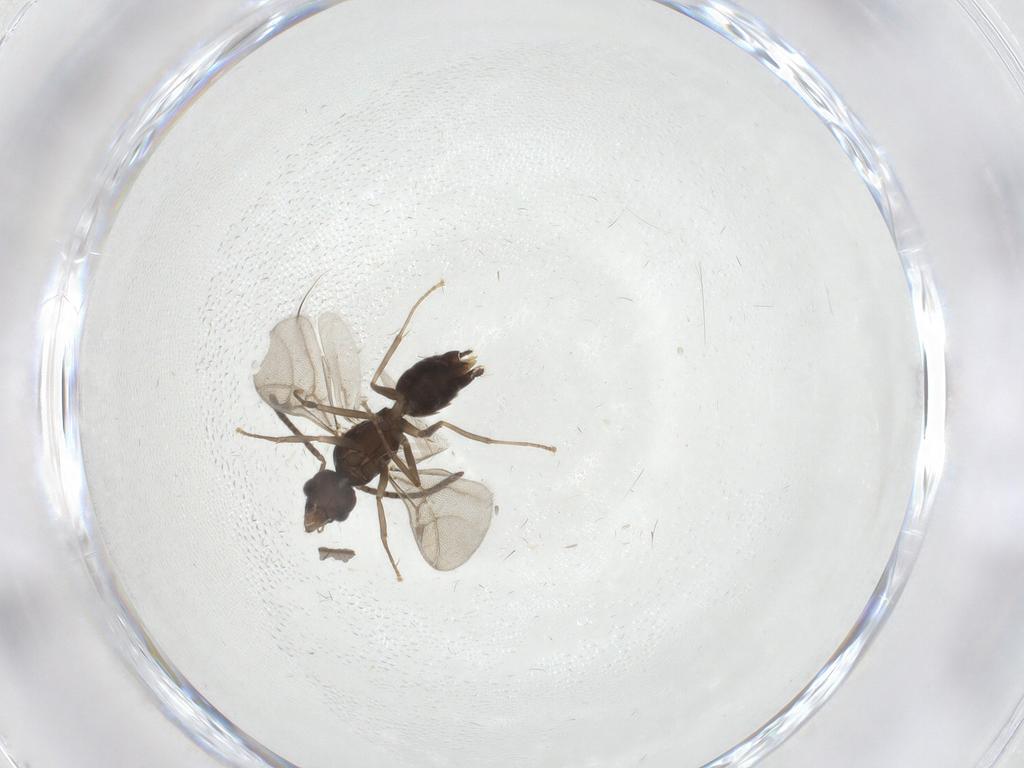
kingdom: Animalia
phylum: Arthropoda
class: Insecta
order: Hymenoptera
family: Formicidae
